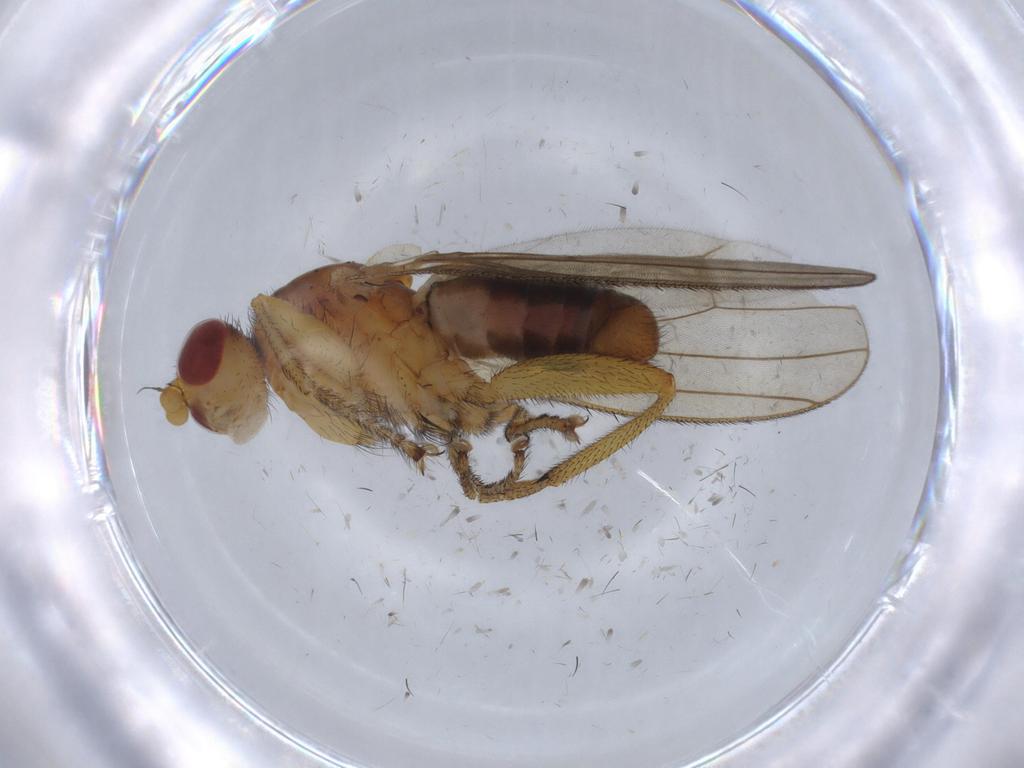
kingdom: Animalia
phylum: Arthropoda
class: Insecta
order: Diptera
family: Heleomyzidae
